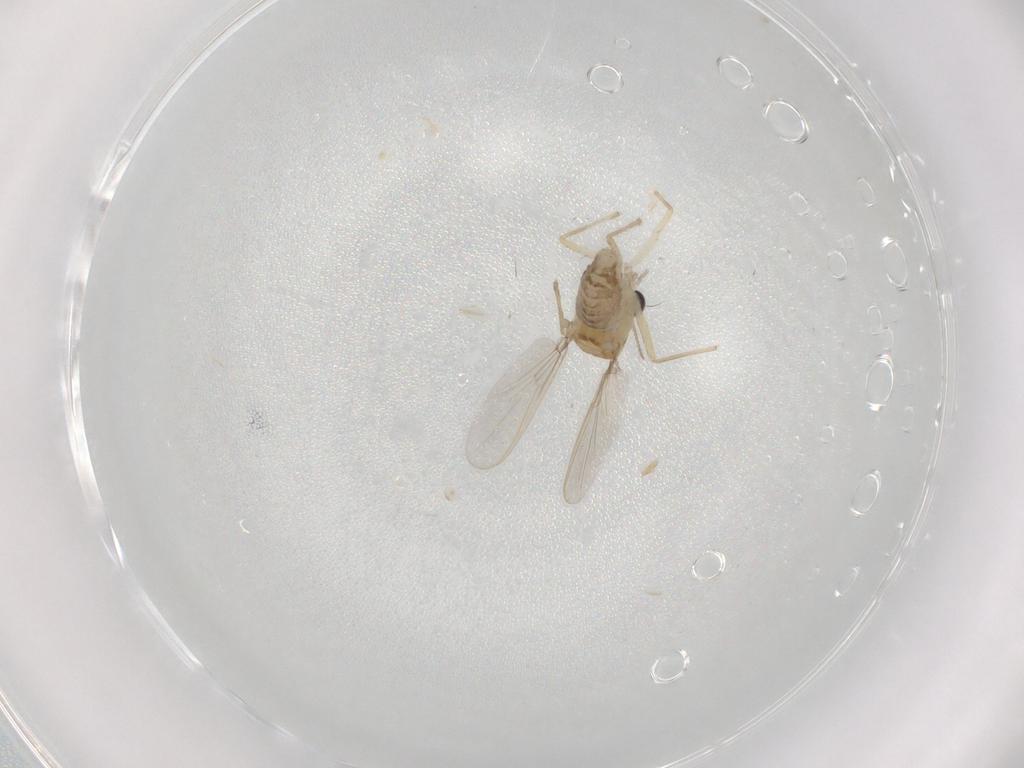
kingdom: Animalia
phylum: Arthropoda
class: Insecta
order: Diptera
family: Chironomidae
